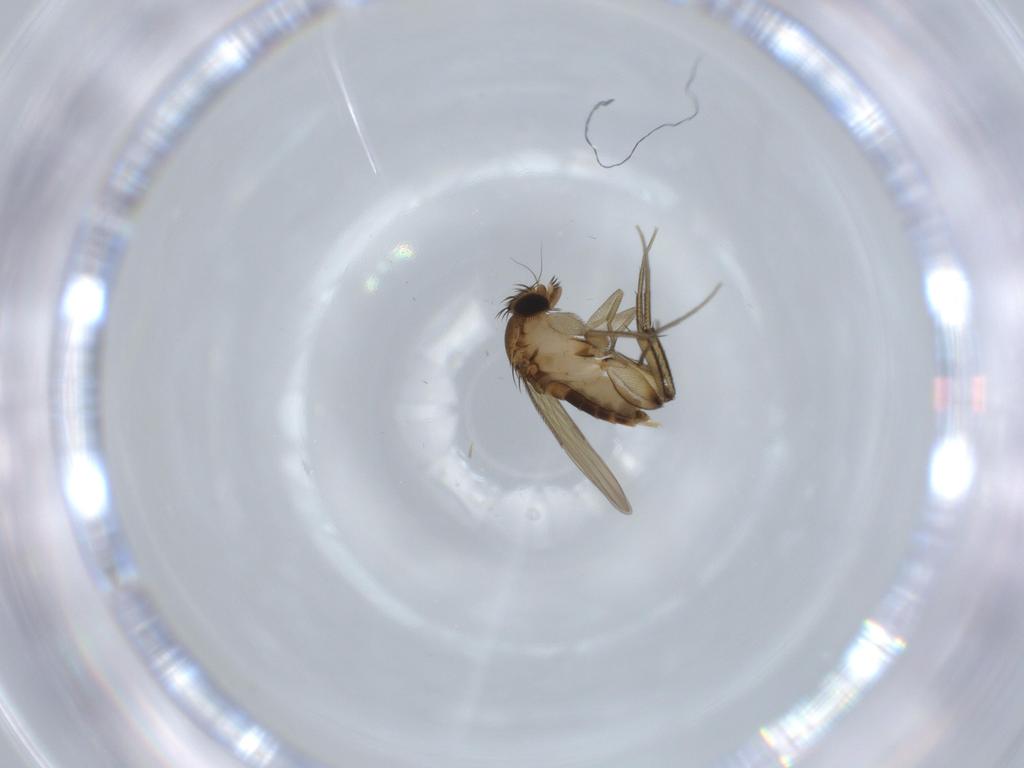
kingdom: Animalia
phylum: Arthropoda
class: Insecta
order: Diptera
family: Phoridae
